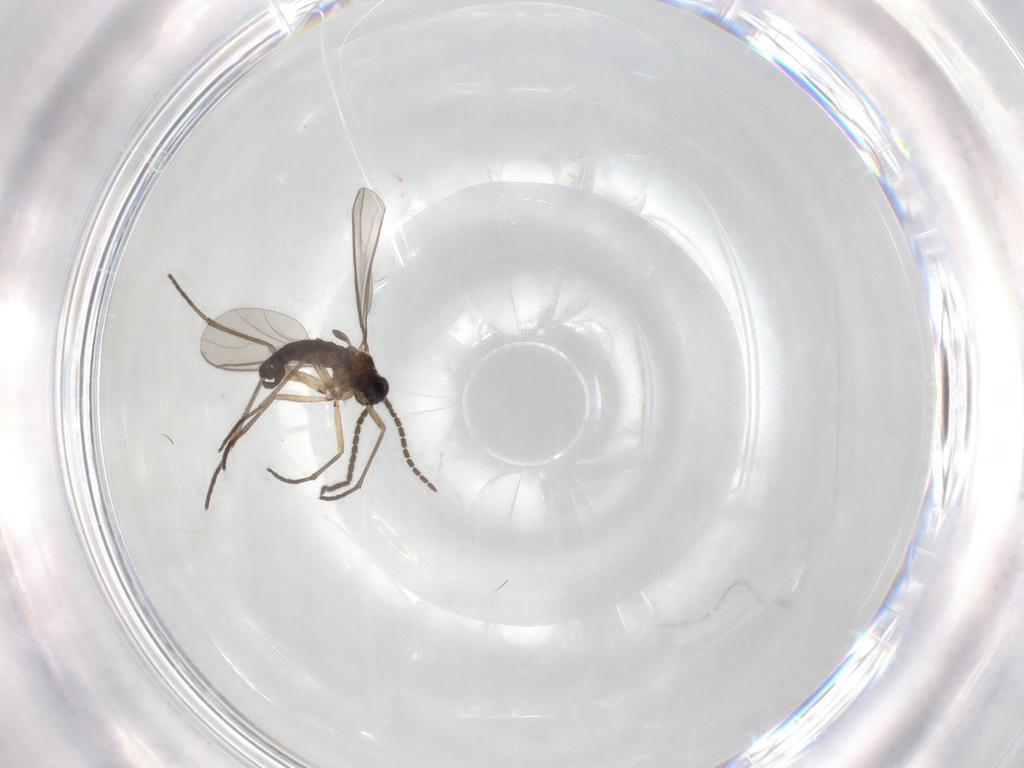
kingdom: Animalia
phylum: Arthropoda
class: Insecta
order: Diptera
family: Sciaridae
